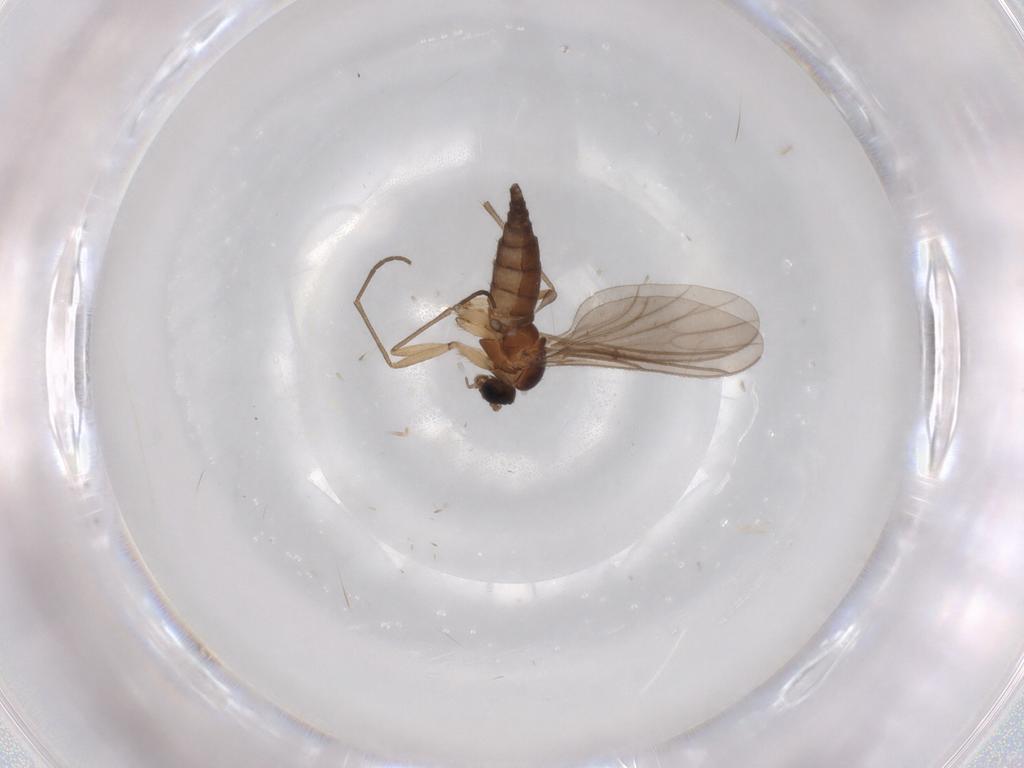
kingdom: Animalia
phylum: Arthropoda
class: Insecta
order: Diptera
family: Sciaridae
